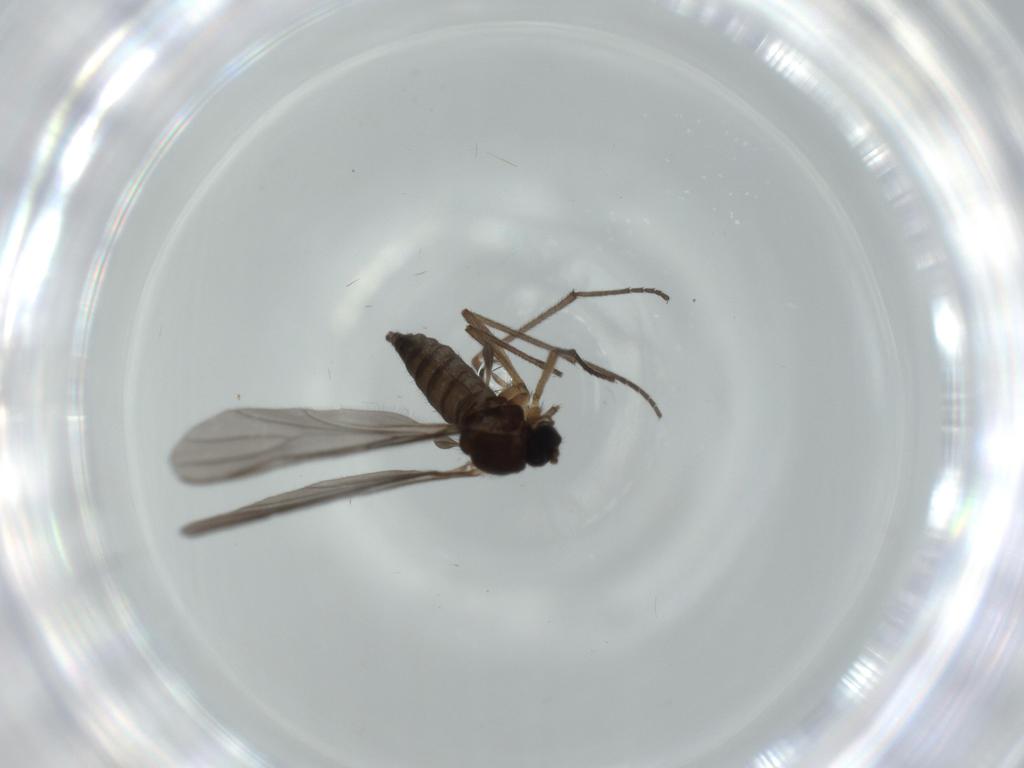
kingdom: Animalia
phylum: Arthropoda
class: Insecta
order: Diptera
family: Sciaridae
